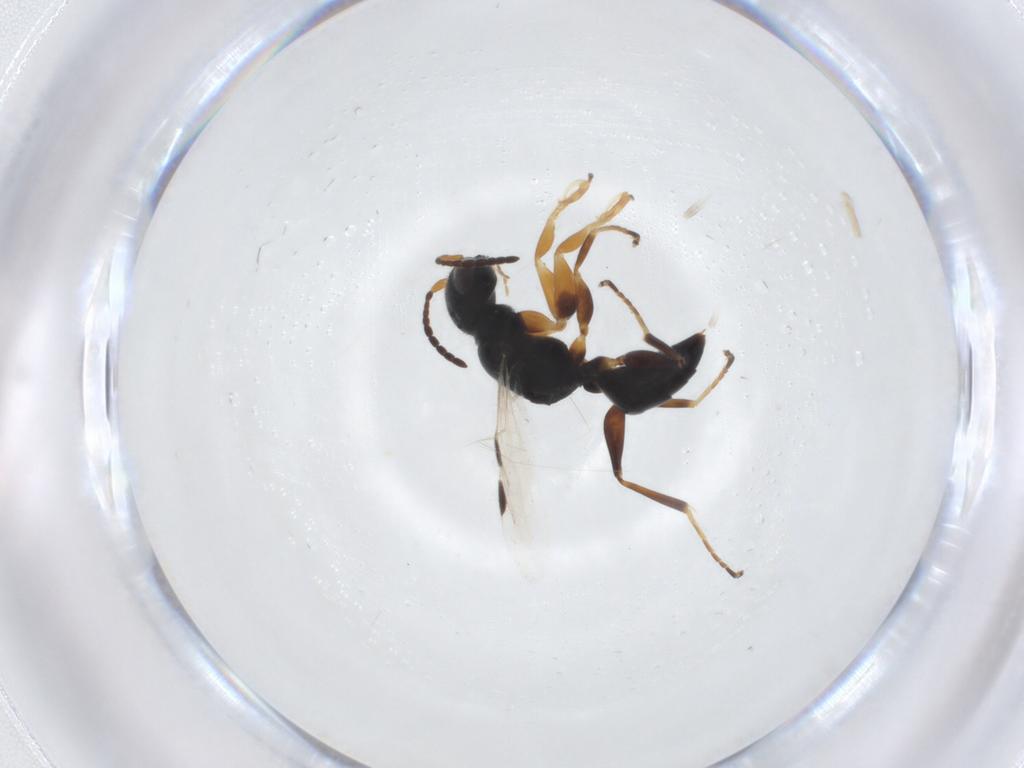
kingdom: Animalia
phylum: Arthropoda
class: Insecta
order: Hymenoptera
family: Dryinidae
